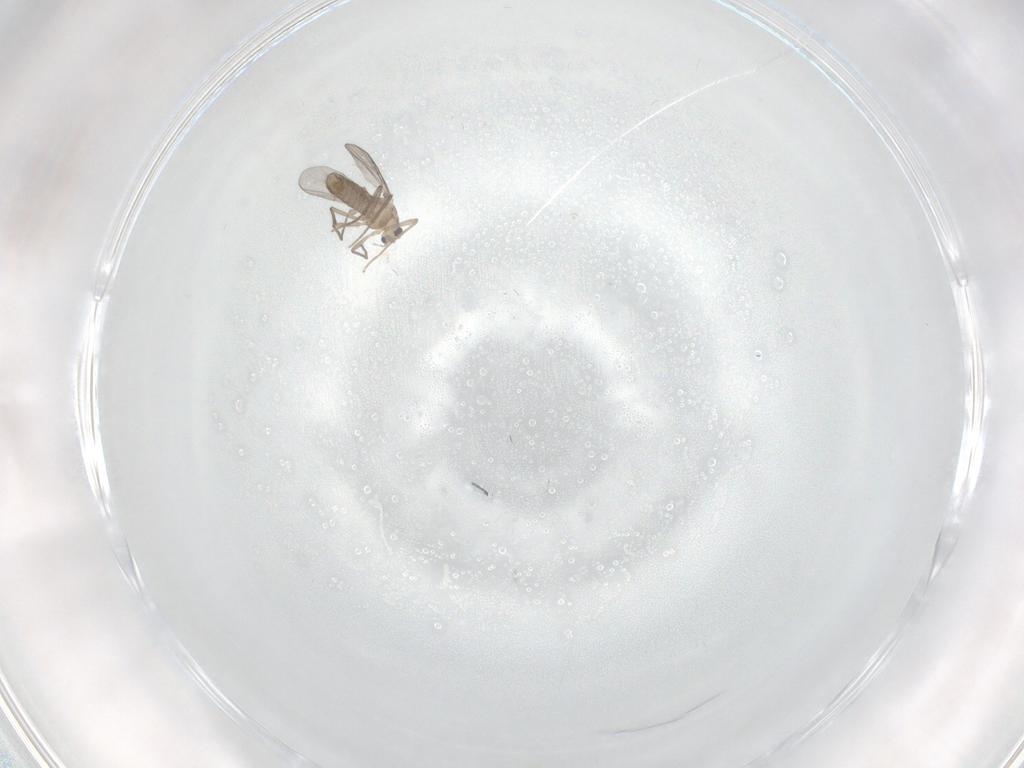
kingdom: Animalia
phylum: Arthropoda
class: Insecta
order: Diptera
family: Chironomidae
